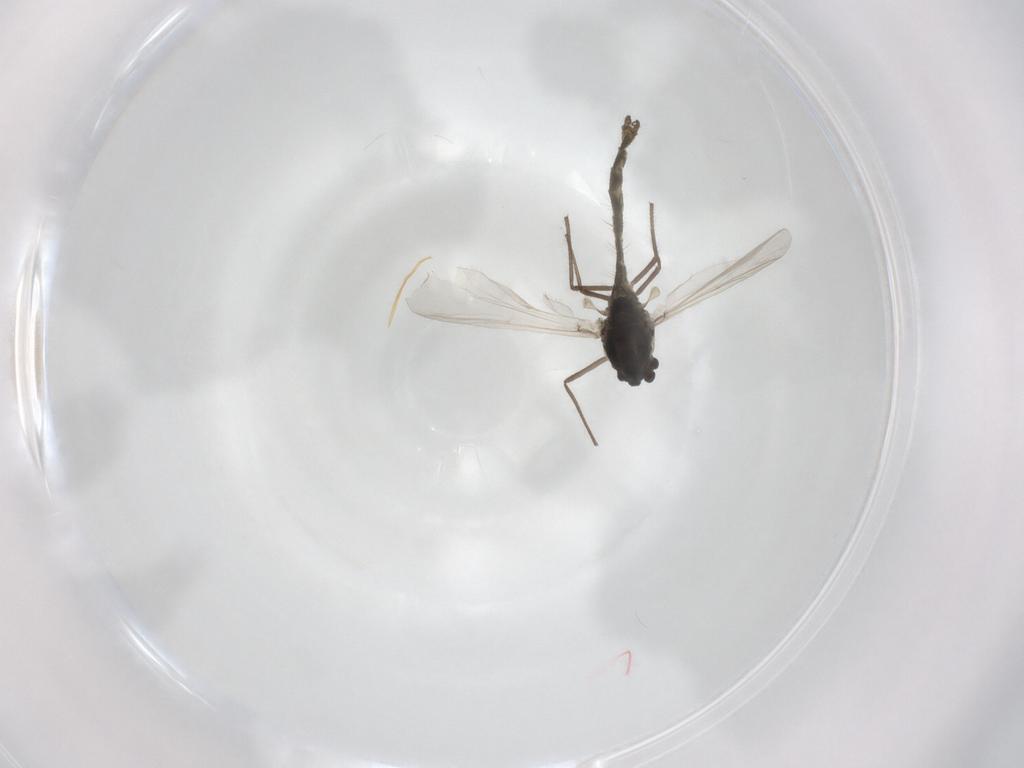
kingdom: Animalia
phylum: Arthropoda
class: Insecta
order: Diptera
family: Chironomidae
